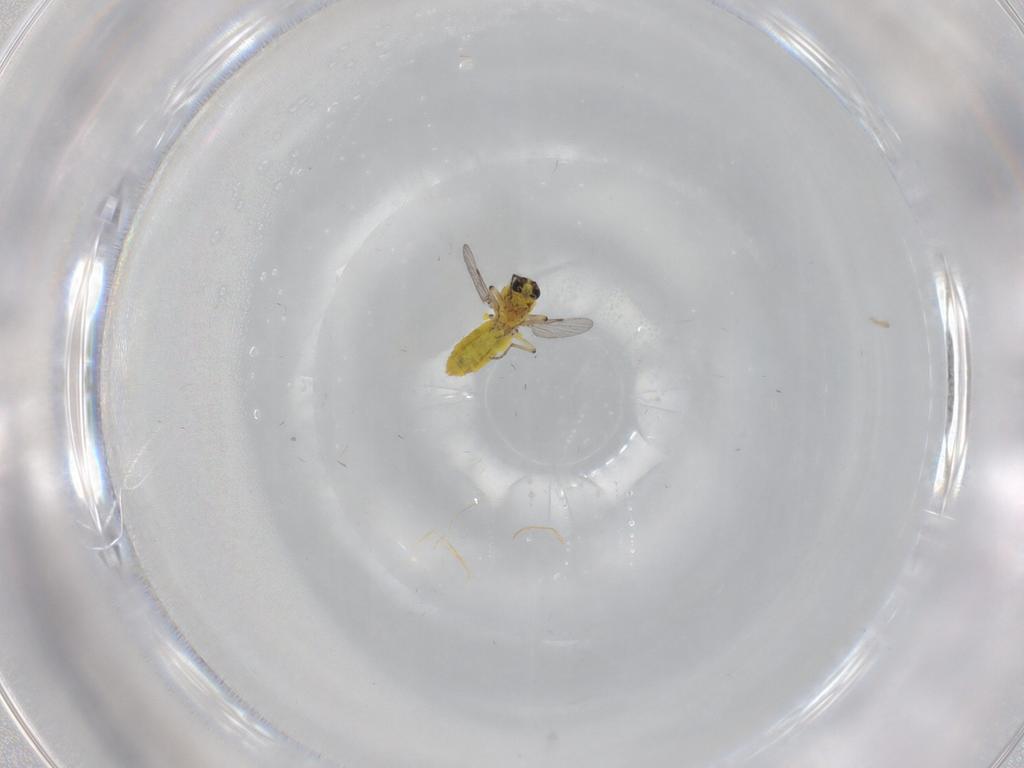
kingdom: Animalia
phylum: Arthropoda
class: Insecta
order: Diptera
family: Ceratopogonidae
